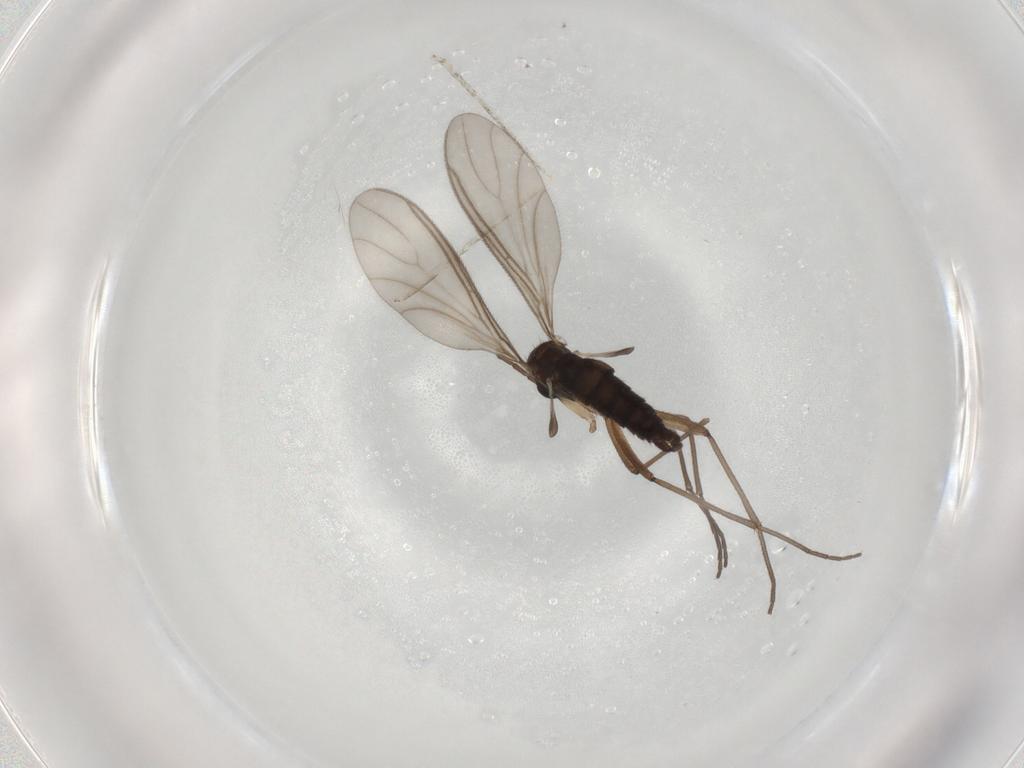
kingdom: Animalia
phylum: Arthropoda
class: Insecta
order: Diptera
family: Sciaridae
